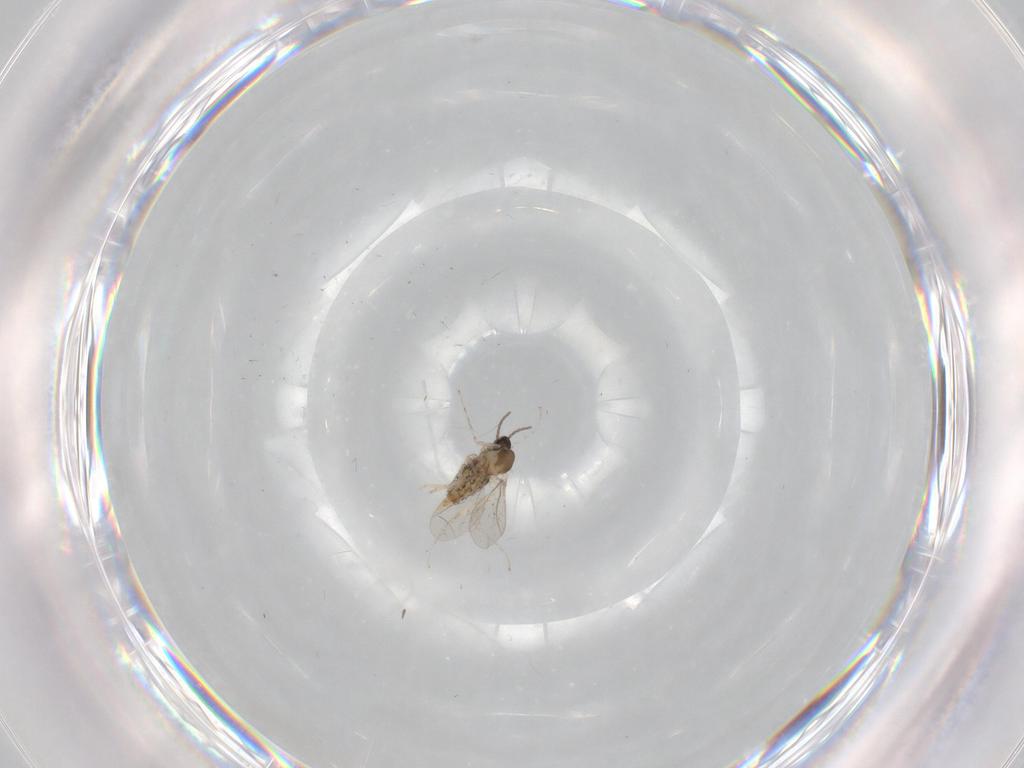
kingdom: Animalia
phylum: Arthropoda
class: Insecta
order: Diptera
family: Cecidomyiidae
